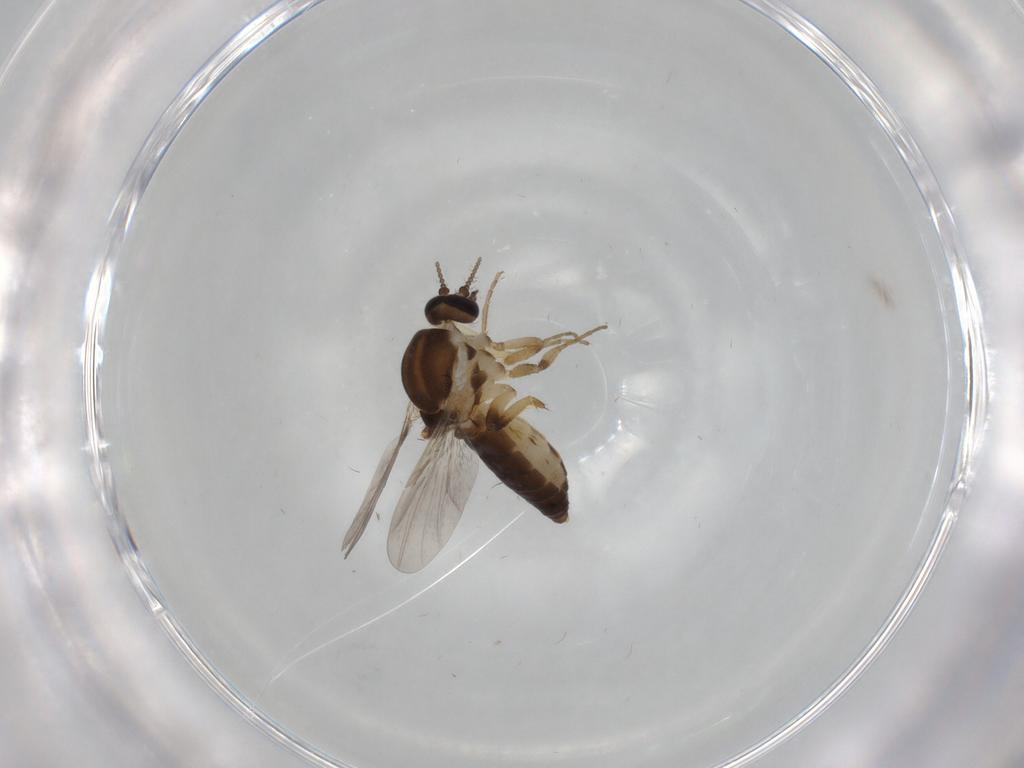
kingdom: Animalia
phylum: Arthropoda
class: Insecta
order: Diptera
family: Ceratopogonidae
